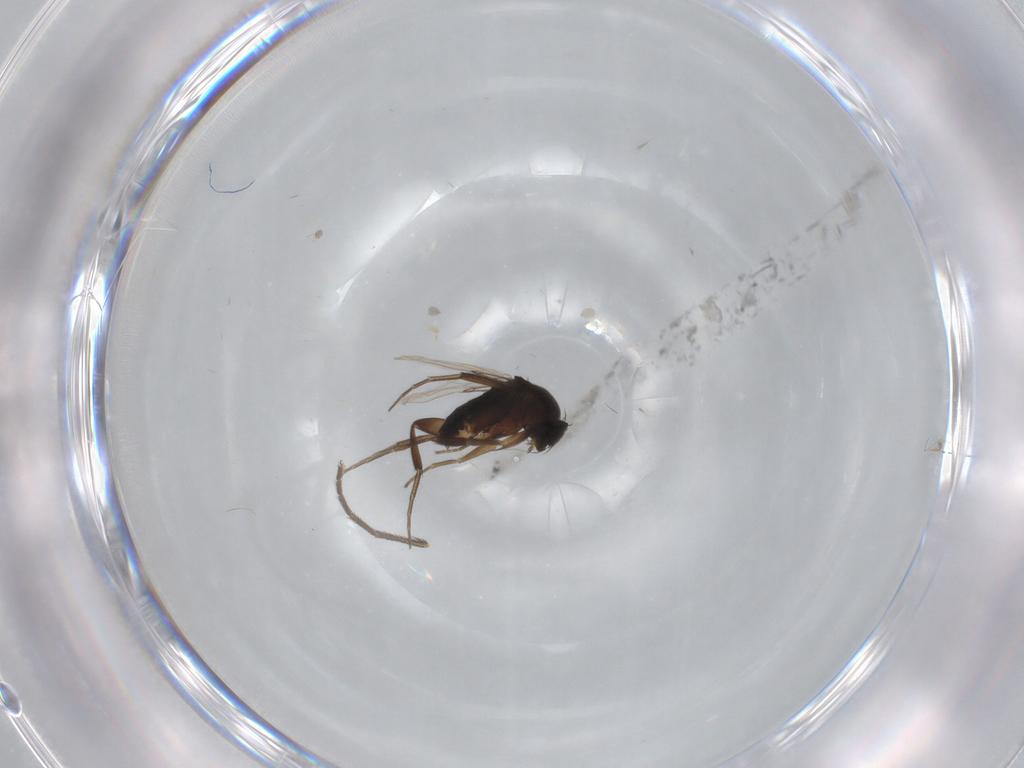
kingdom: Animalia
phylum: Arthropoda
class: Insecta
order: Diptera
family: Phoridae
